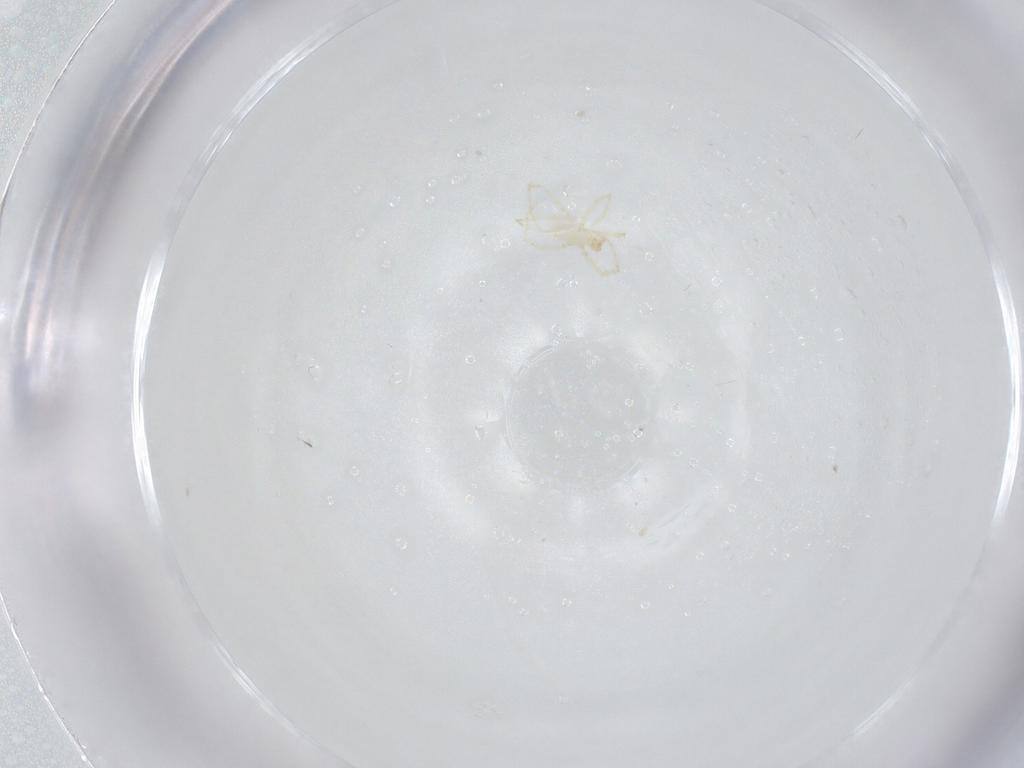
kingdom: Animalia
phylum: Arthropoda
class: Arachnida
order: Trombidiformes
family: Erythraeidae
